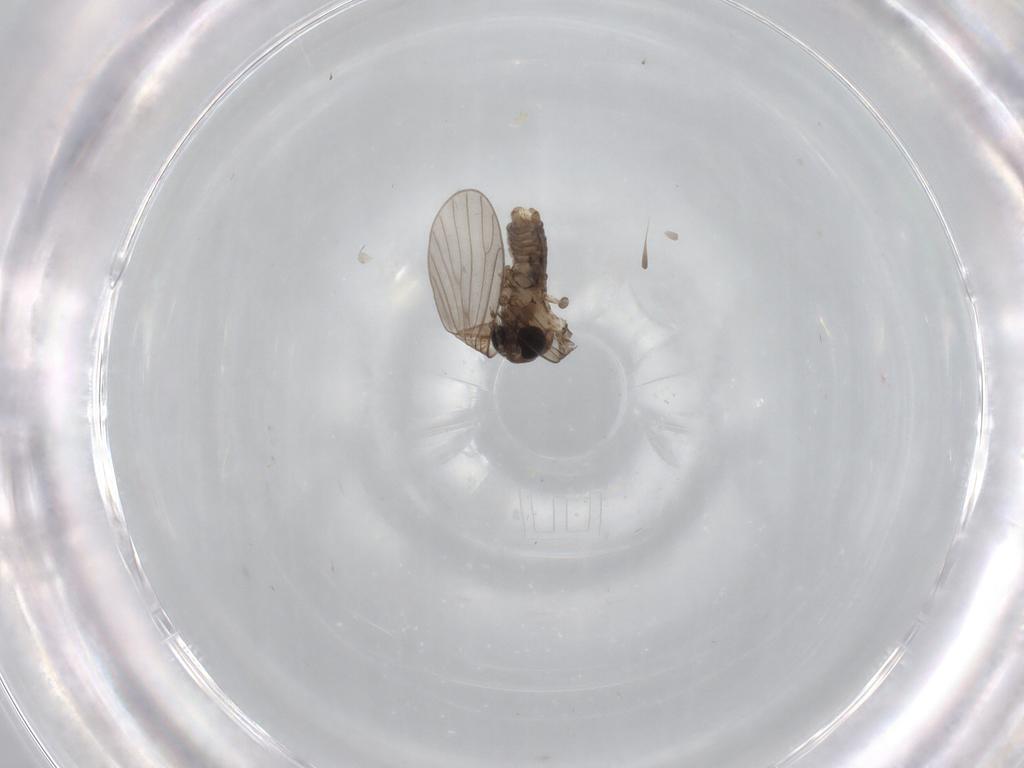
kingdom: Animalia
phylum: Arthropoda
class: Insecta
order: Diptera
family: Psychodidae
